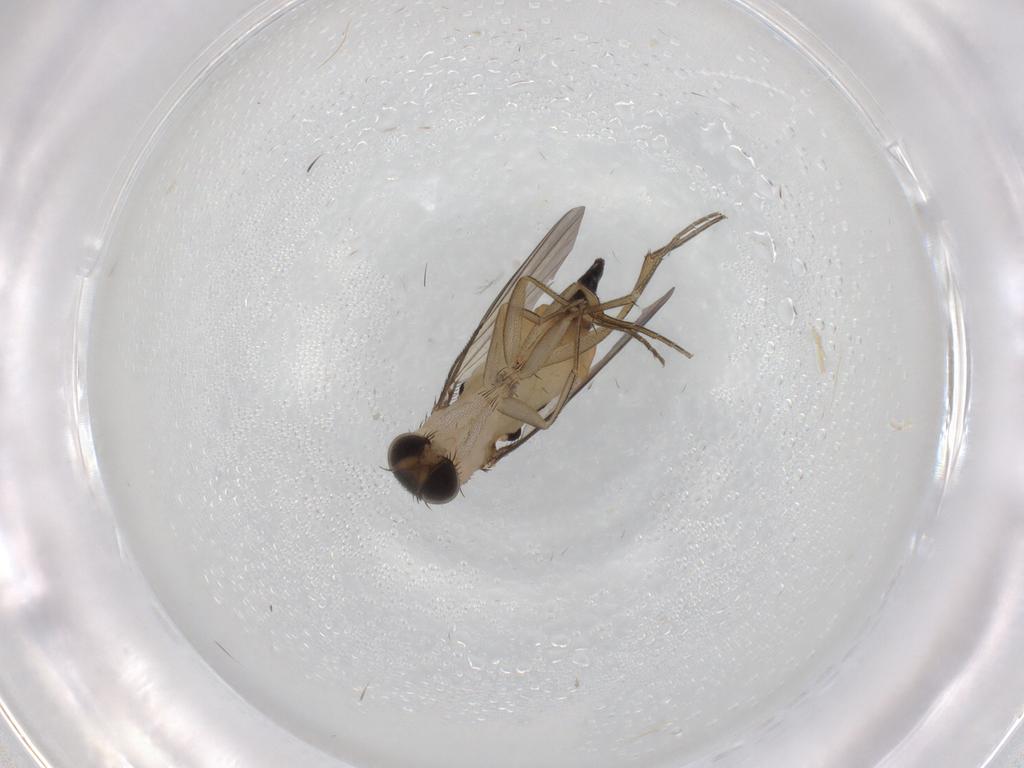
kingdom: Animalia
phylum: Arthropoda
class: Insecta
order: Diptera
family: Phoridae
